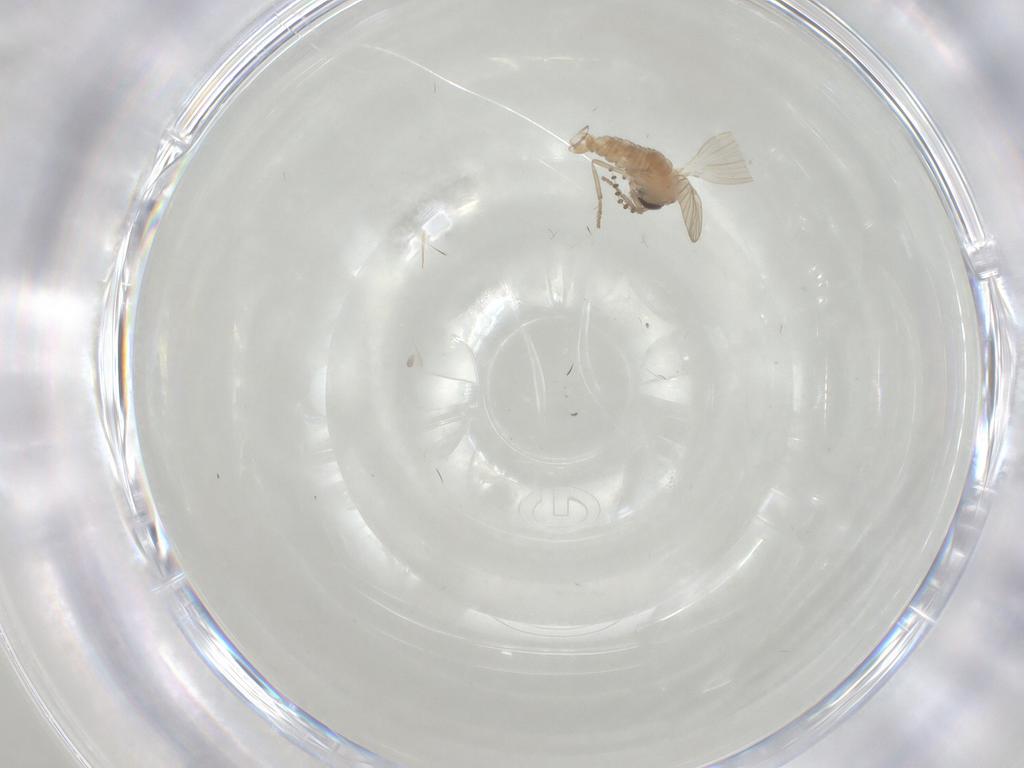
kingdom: Animalia
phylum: Arthropoda
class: Insecta
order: Diptera
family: Psychodidae
